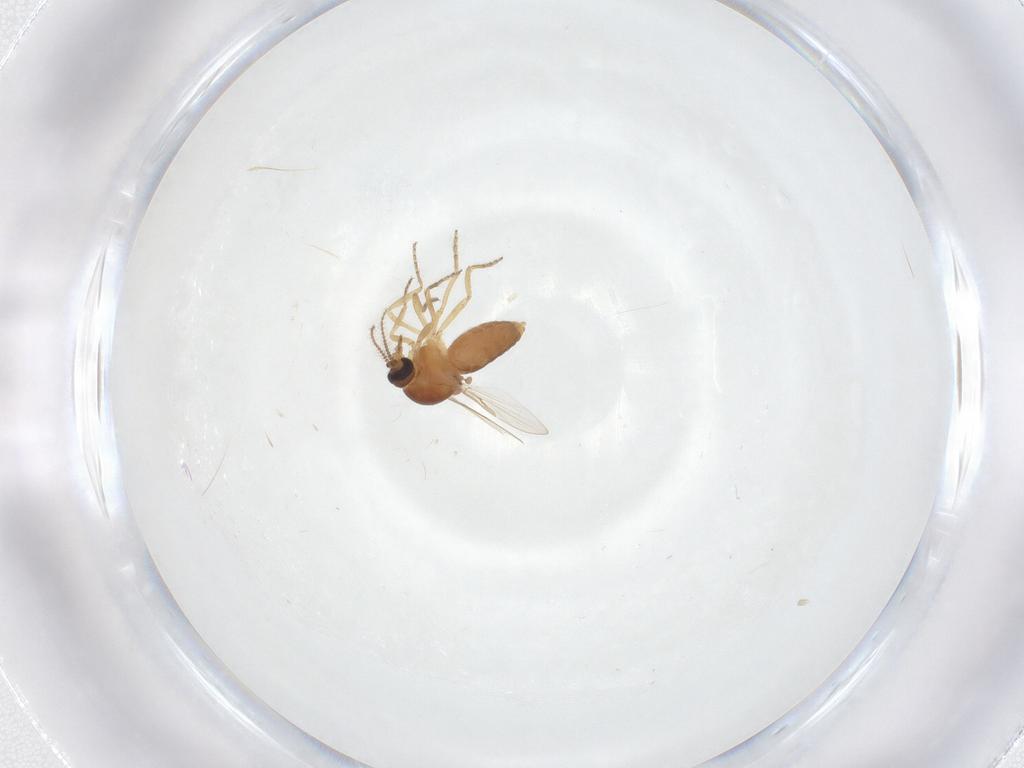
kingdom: Animalia
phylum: Arthropoda
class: Insecta
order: Diptera
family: Ceratopogonidae
